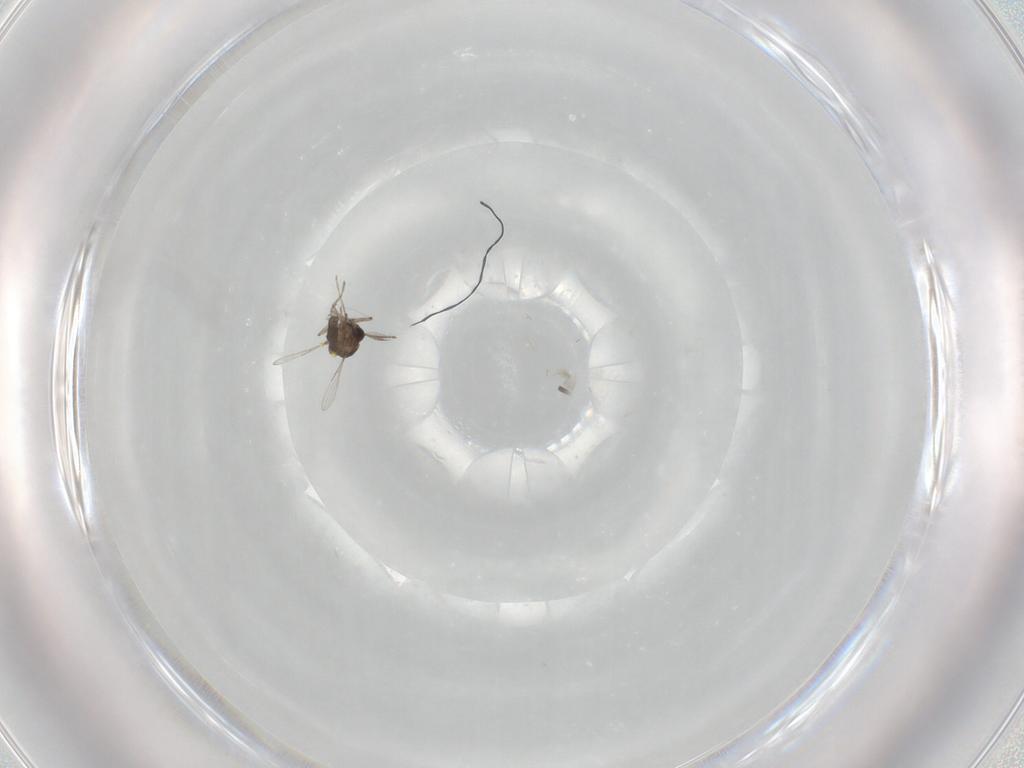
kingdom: Animalia
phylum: Arthropoda
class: Insecta
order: Diptera
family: Ceratopogonidae
